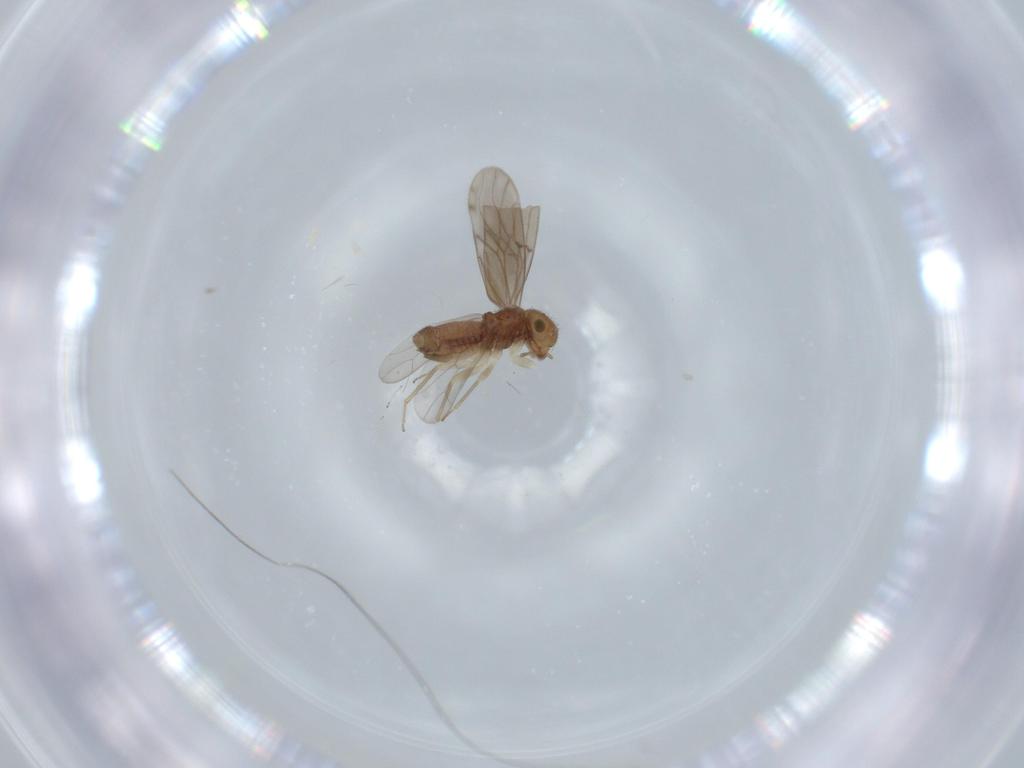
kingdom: Animalia
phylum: Arthropoda
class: Insecta
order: Psocodea
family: Ectopsocidae
